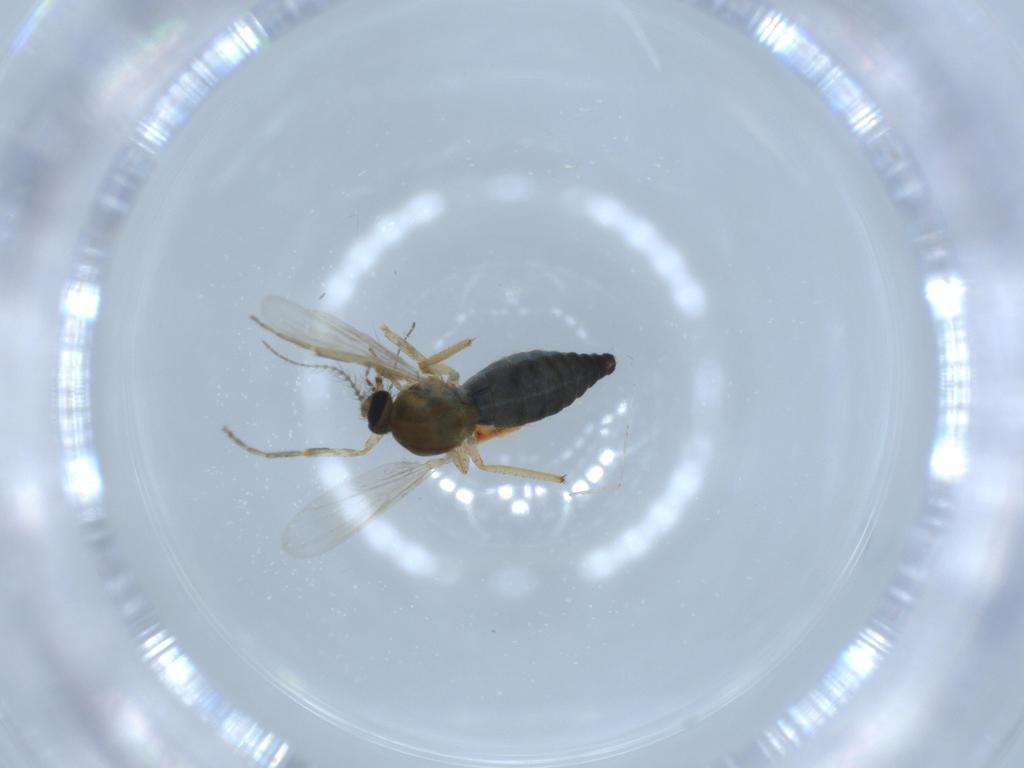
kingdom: Animalia
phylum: Arthropoda
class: Insecta
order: Diptera
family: Ceratopogonidae
